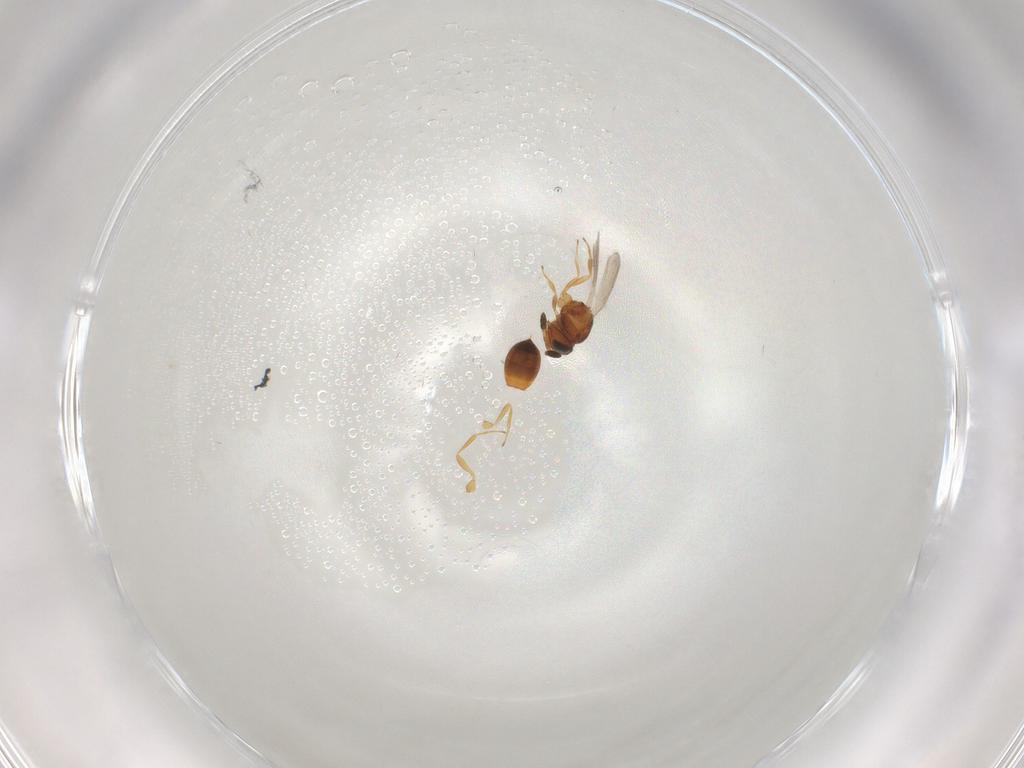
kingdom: Animalia
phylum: Arthropoda
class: Insecta
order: Hymenoptera
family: Scelionidae
